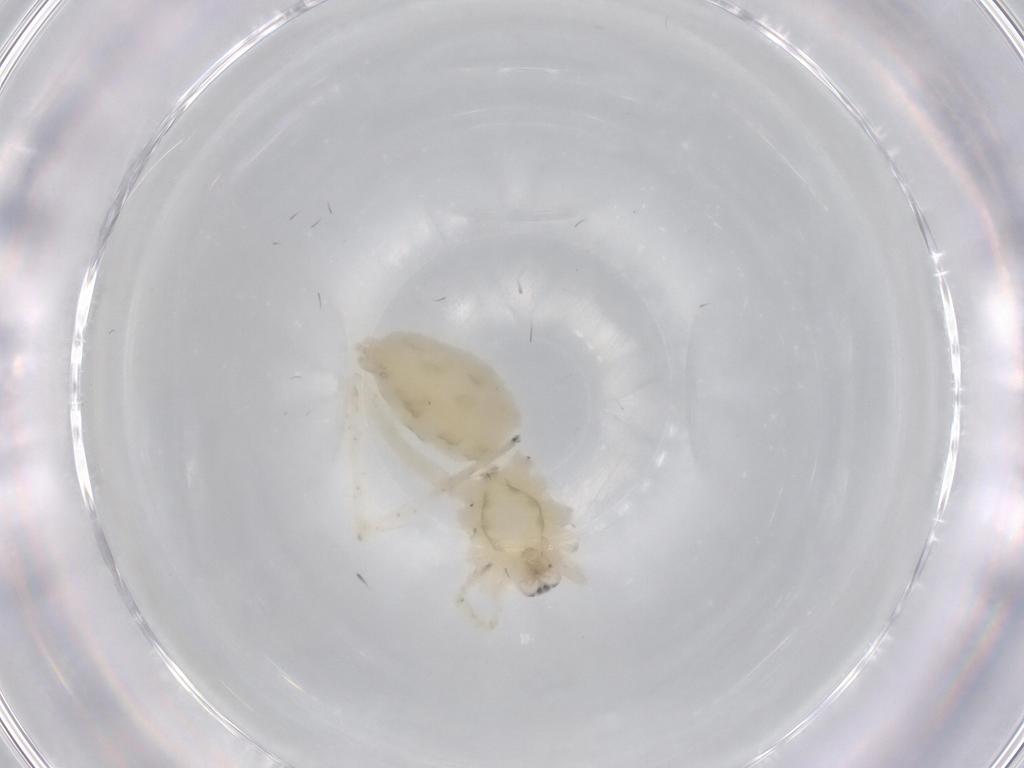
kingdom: Animalia
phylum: Arthropoda
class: Arachnida
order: Araneae
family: Anyphaenidae
